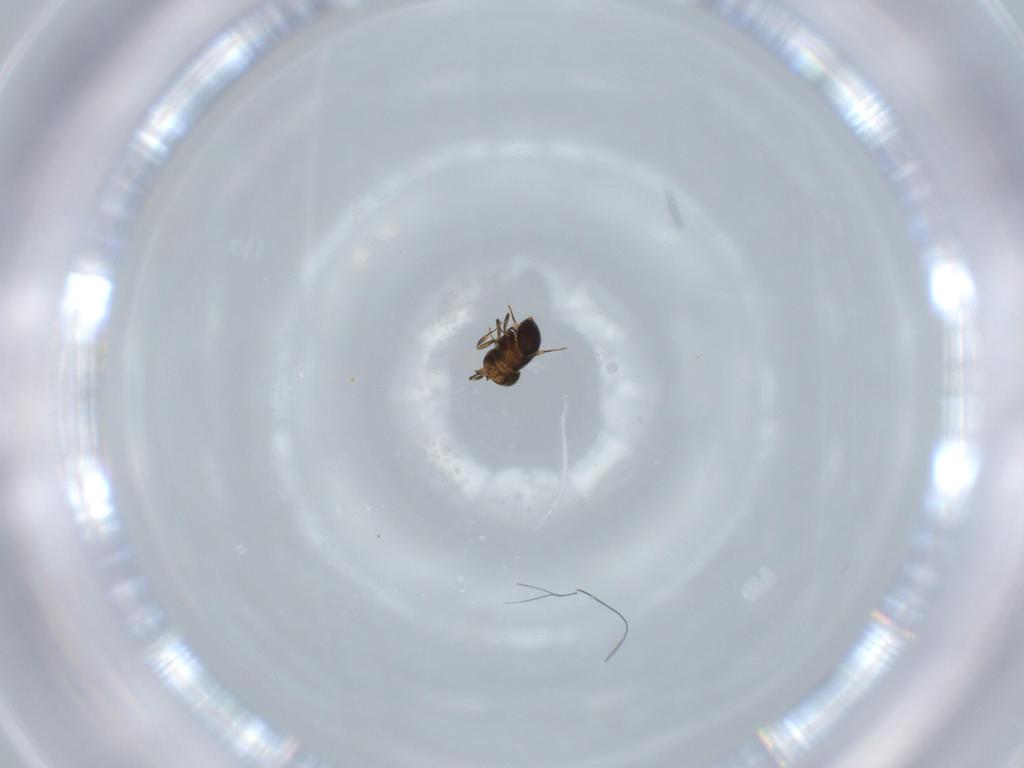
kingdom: Animalia
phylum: Arthropoda
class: Insecta
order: Hymenoptera
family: Scelionidae
